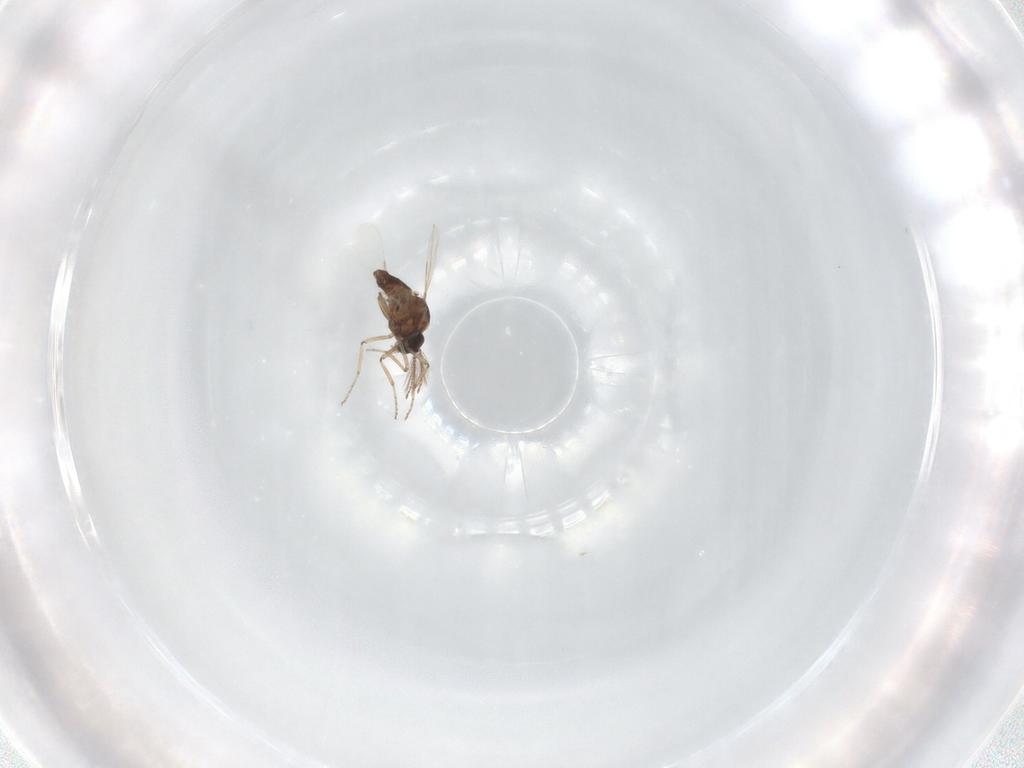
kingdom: Animalia
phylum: Arthropoda
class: Insecta
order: Diptera
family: Ceratopogonidae
